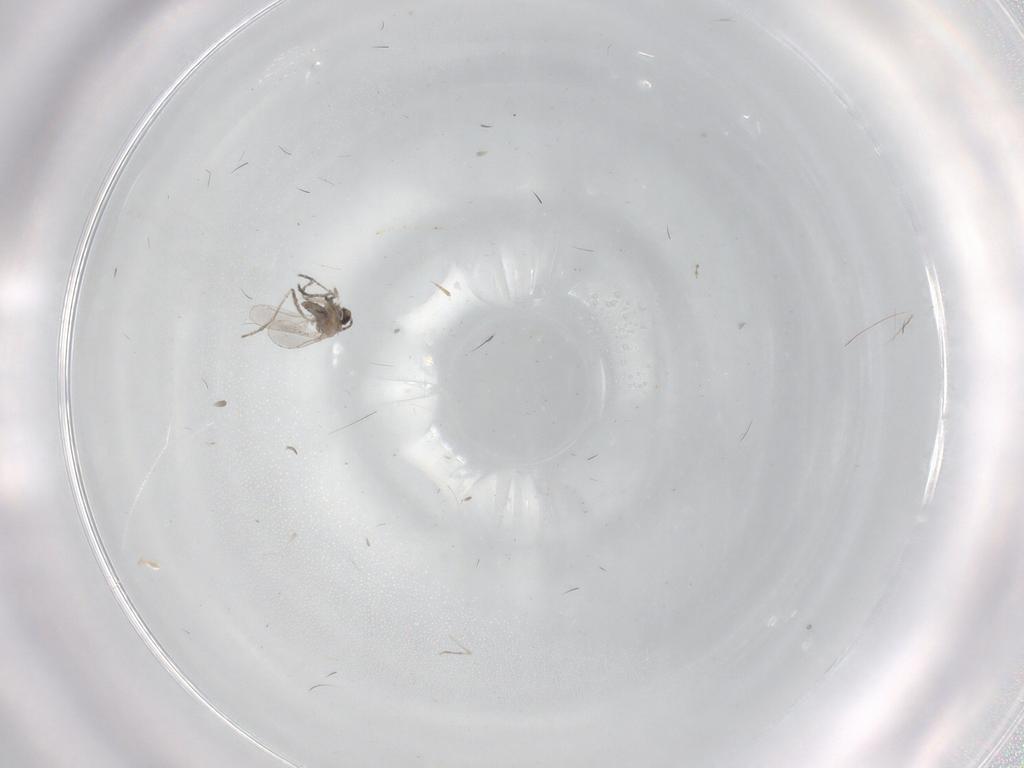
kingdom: Animalia
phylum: Arthropoda
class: Insecta
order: Diptera
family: Cecidomyiidae
